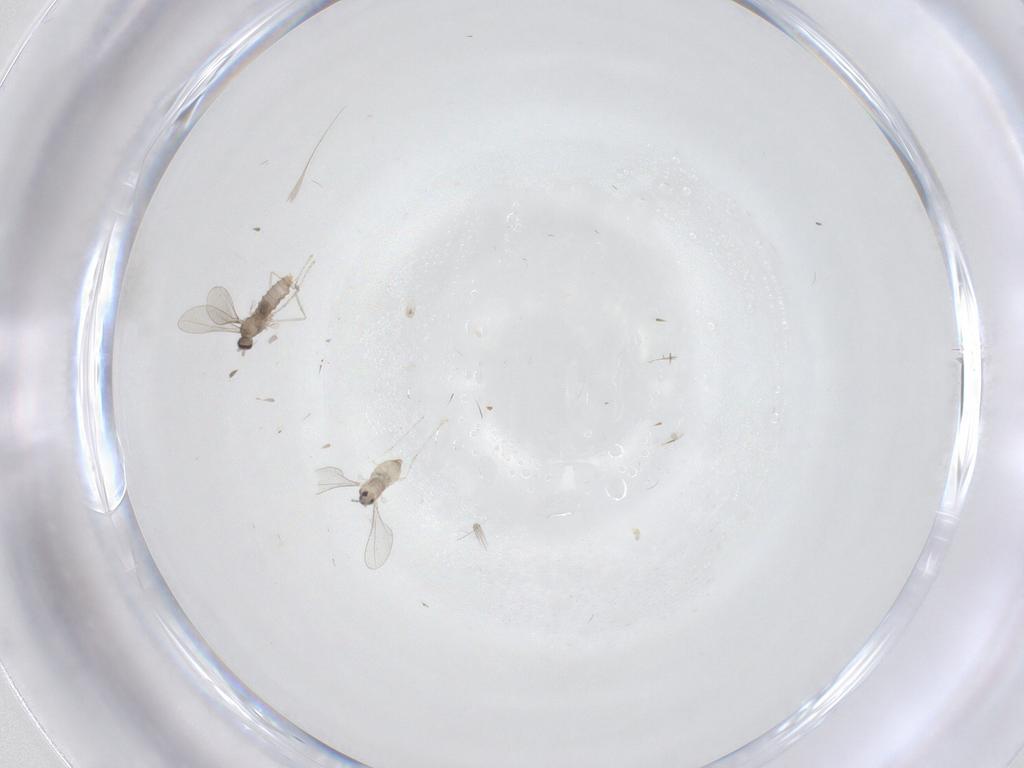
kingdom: Animalia
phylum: Arthropoda
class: Insecta
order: Diptera
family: Cecidomyiidae
